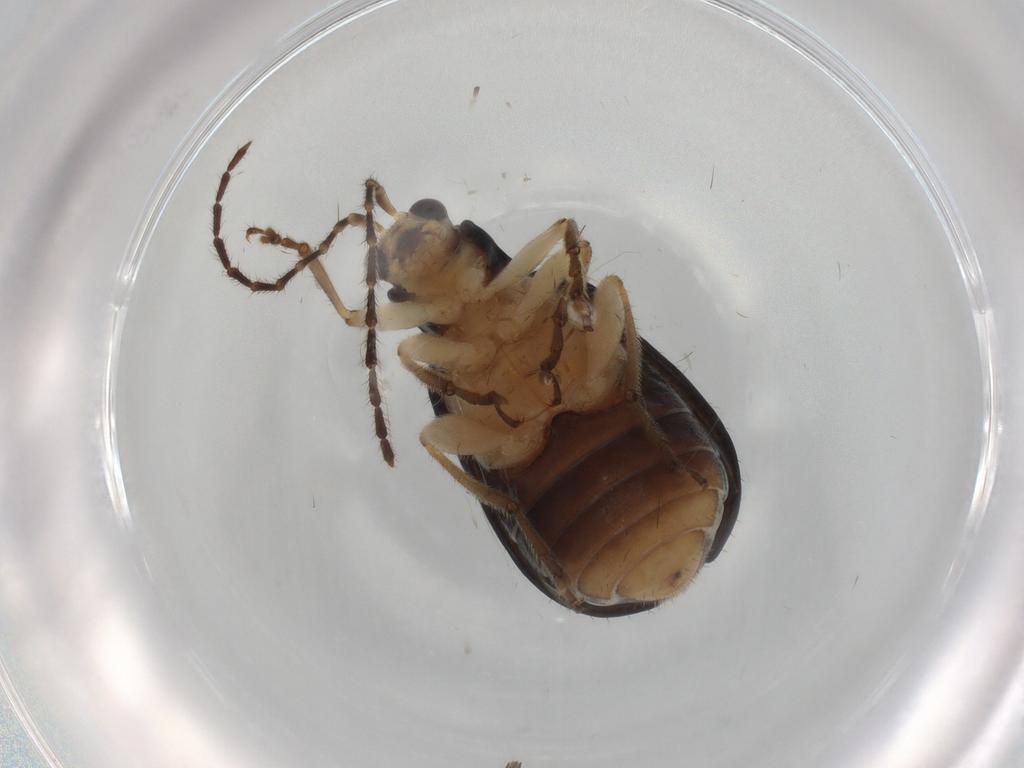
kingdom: Animalia
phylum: Arthropoda
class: Insecta
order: Coleoptera
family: Chrysomelidae
